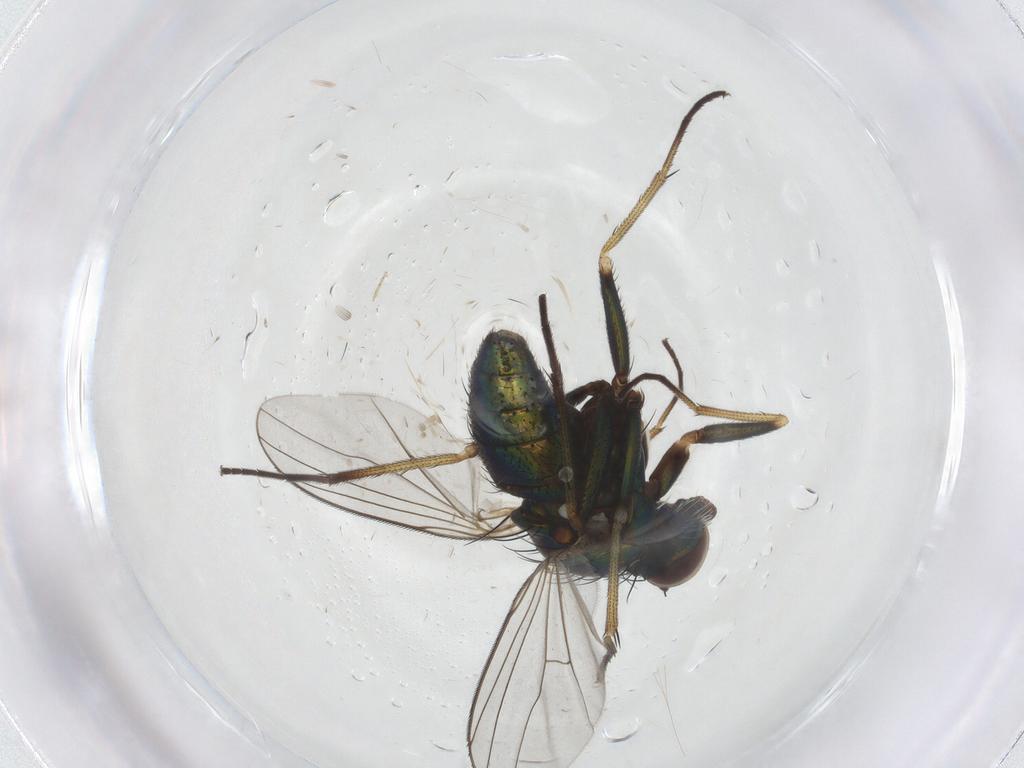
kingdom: Animalia
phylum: Arthropoda
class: Insecta
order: Diptera
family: Dolichopodidae
